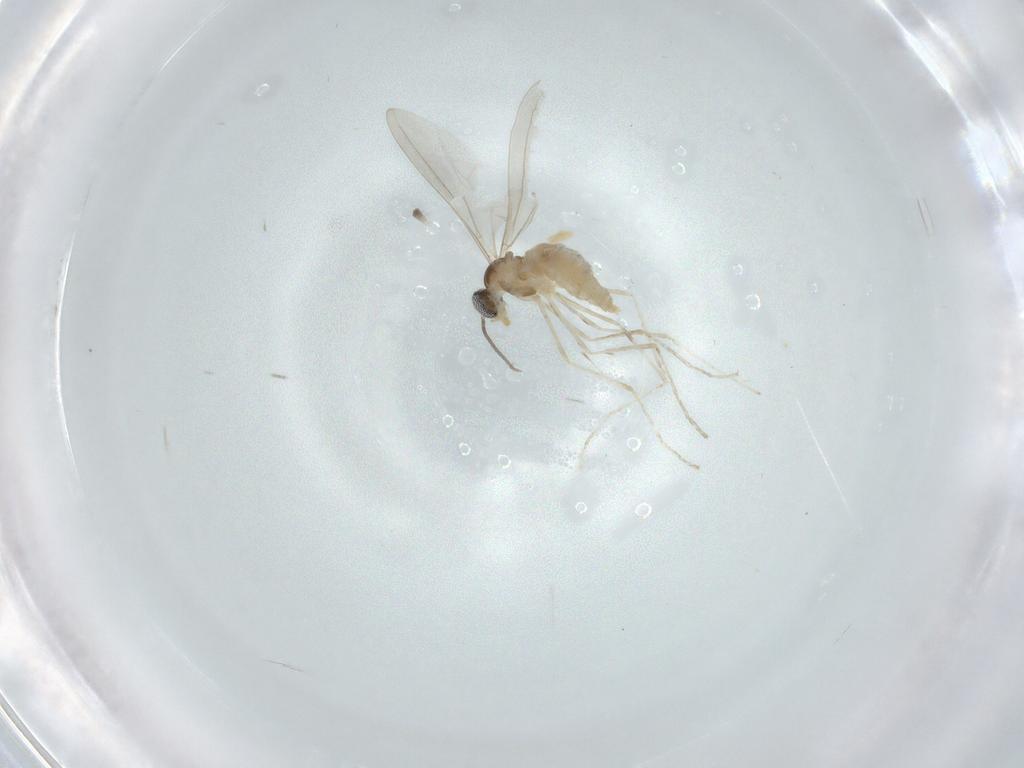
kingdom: Animalia
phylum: Arthropoda
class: Insecta
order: Diptera
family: Cecidomyiidae
